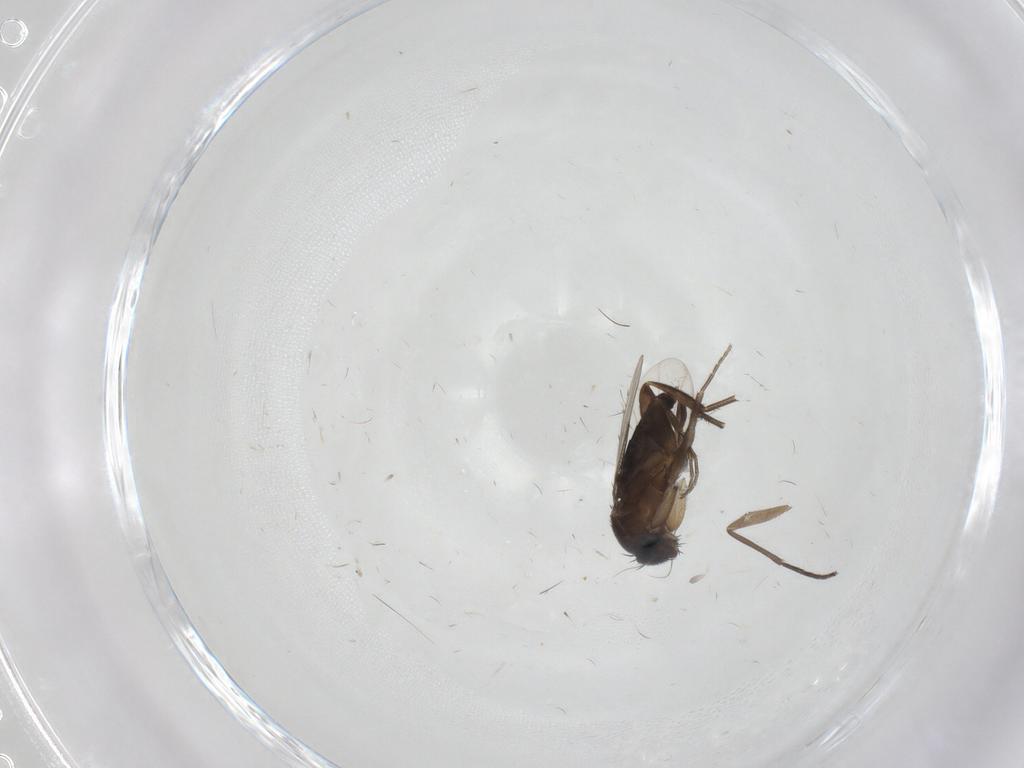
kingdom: Animalia
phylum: Arthropoda
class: Insecta
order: Diptera
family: Phoridae
